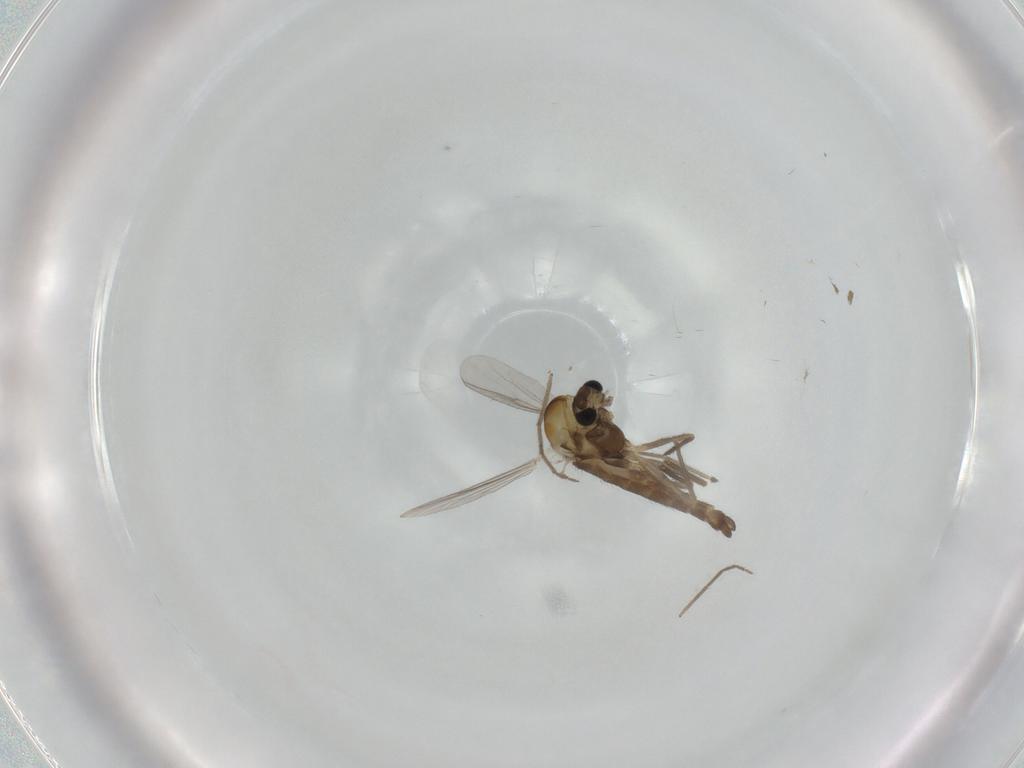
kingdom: Animalia
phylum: Arthropoda
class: Insecta
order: Diptera
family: Chironomidae
